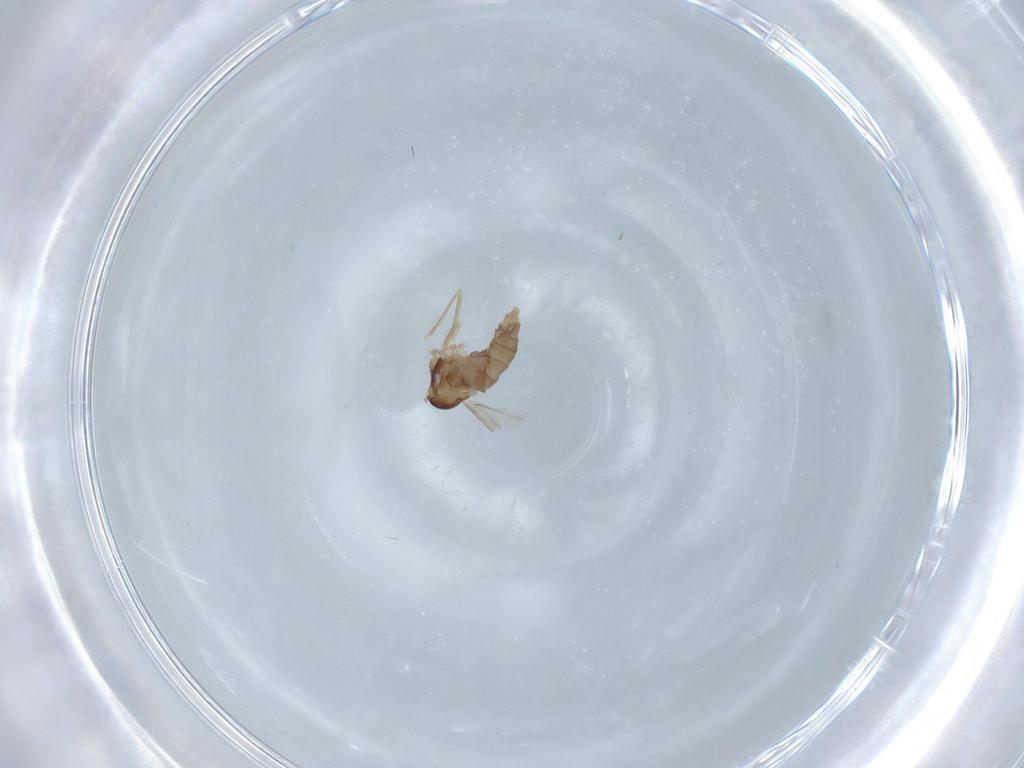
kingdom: Animalia
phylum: Arthropoda
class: Insecta
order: Diptera
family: Cecidomyiidae
